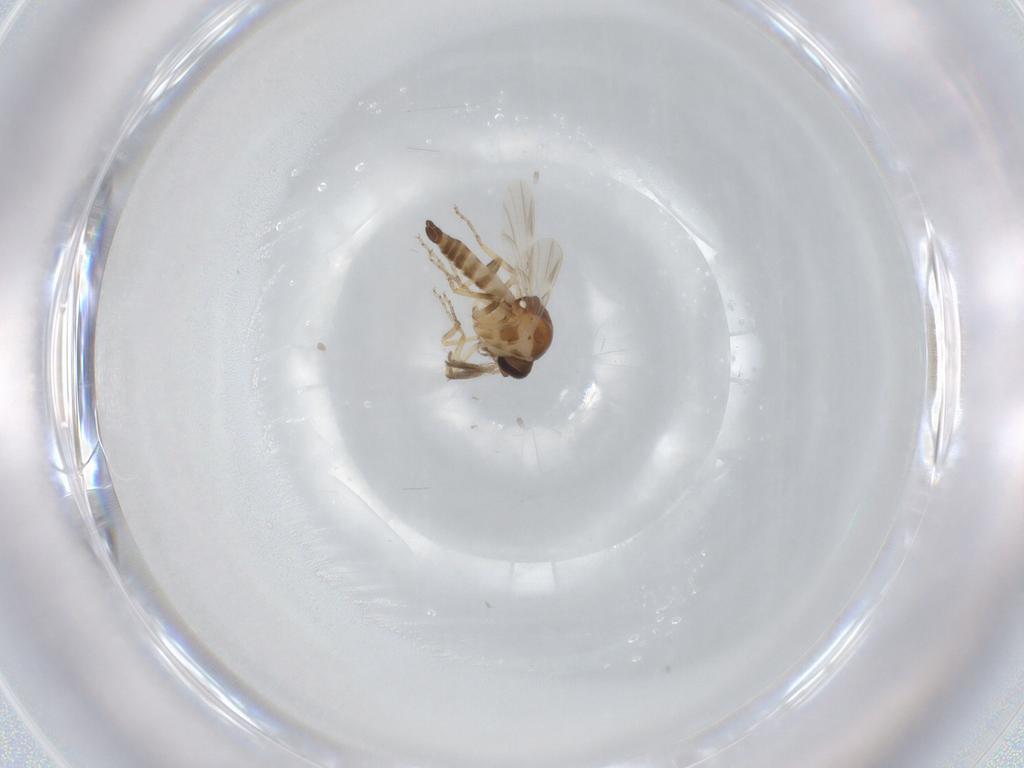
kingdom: Animalia
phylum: Arthropoda
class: Insecta
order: Diptera
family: Ceratopogonidae
